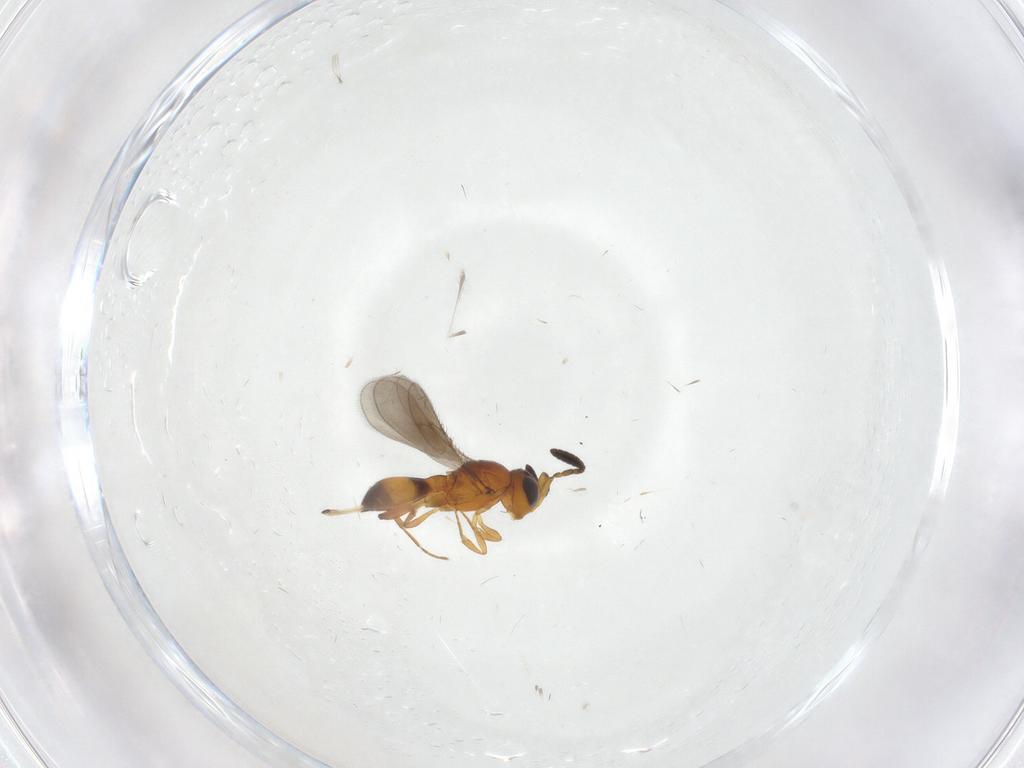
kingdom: Animalia
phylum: Arthropoda
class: Insecta
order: Hymenoptera
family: Scelionidae
